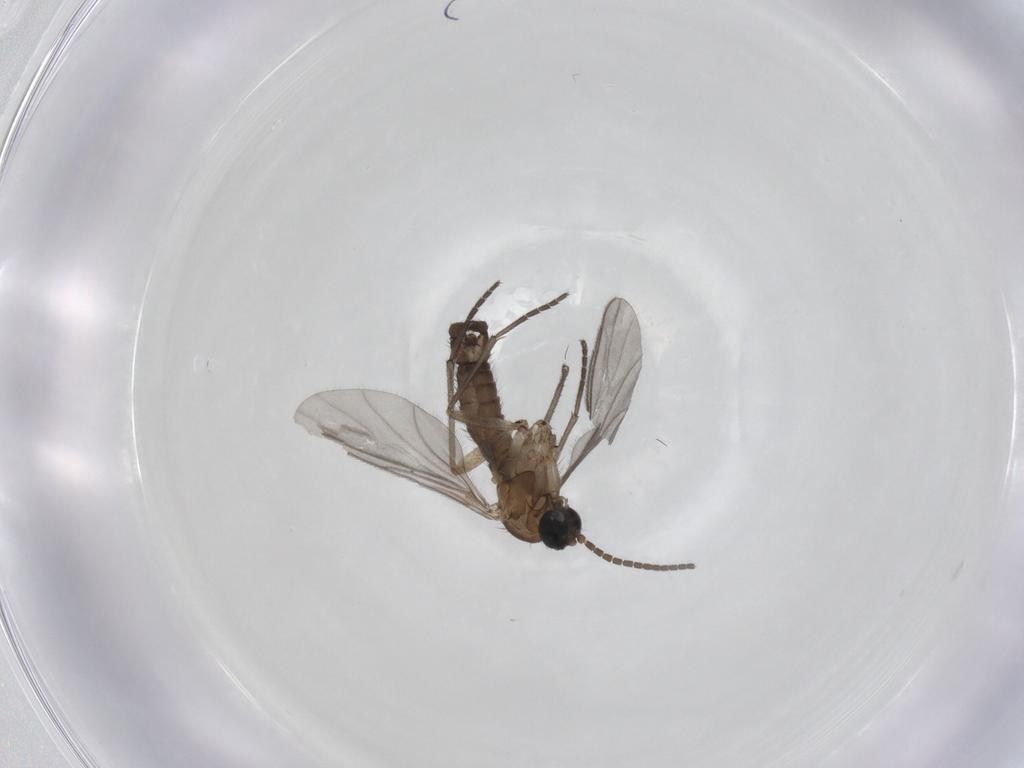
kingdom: Animalia
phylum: Arthropoda
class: Insecta
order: Diptera
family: Sciaridae
